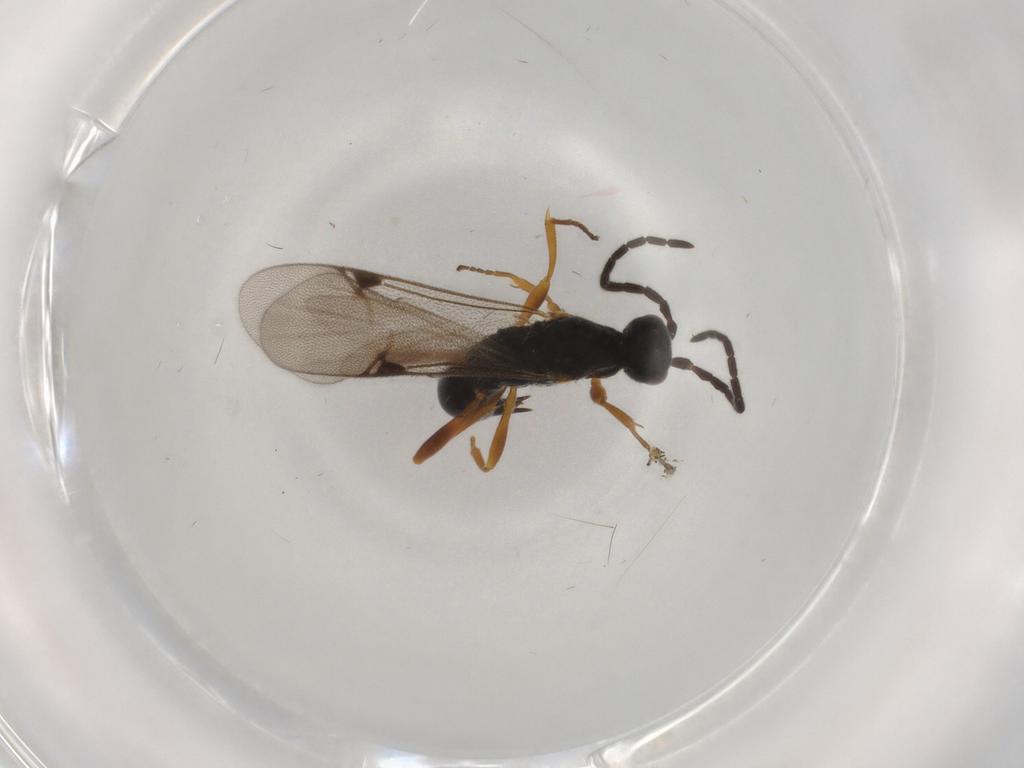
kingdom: Animalia
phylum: Arthropoda
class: Insecta
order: Hymenoptera
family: Proctotrupidae
